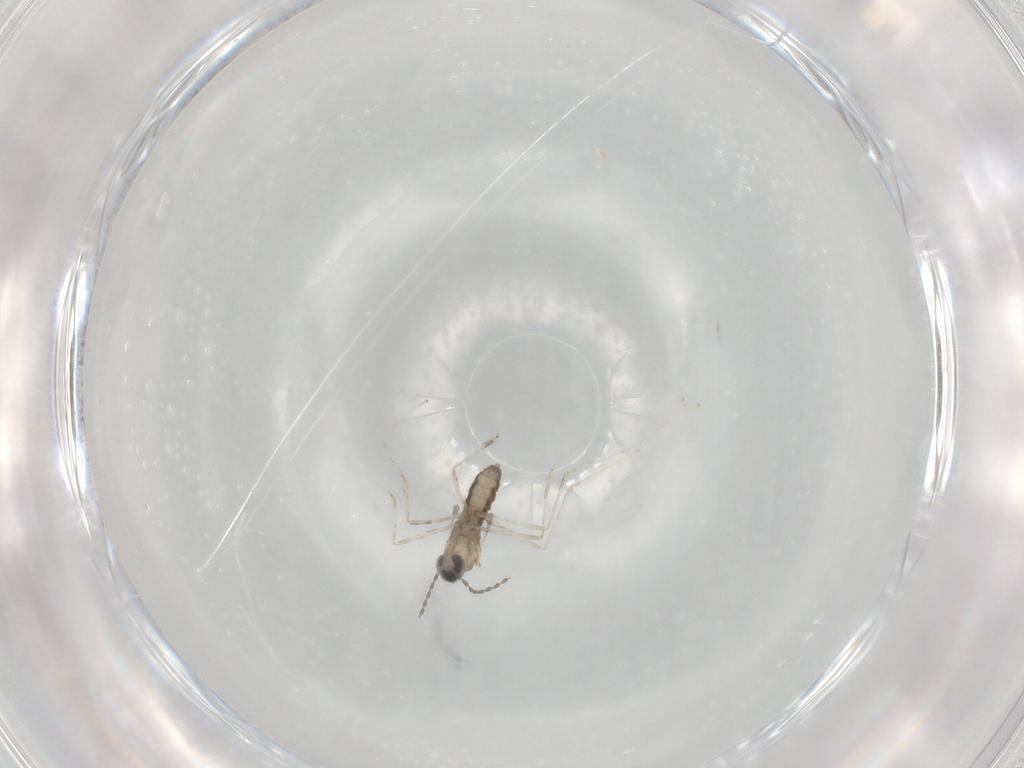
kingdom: Animalia
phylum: Arthropoda
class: Insecta
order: Diptera
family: Cecidomyiidae
